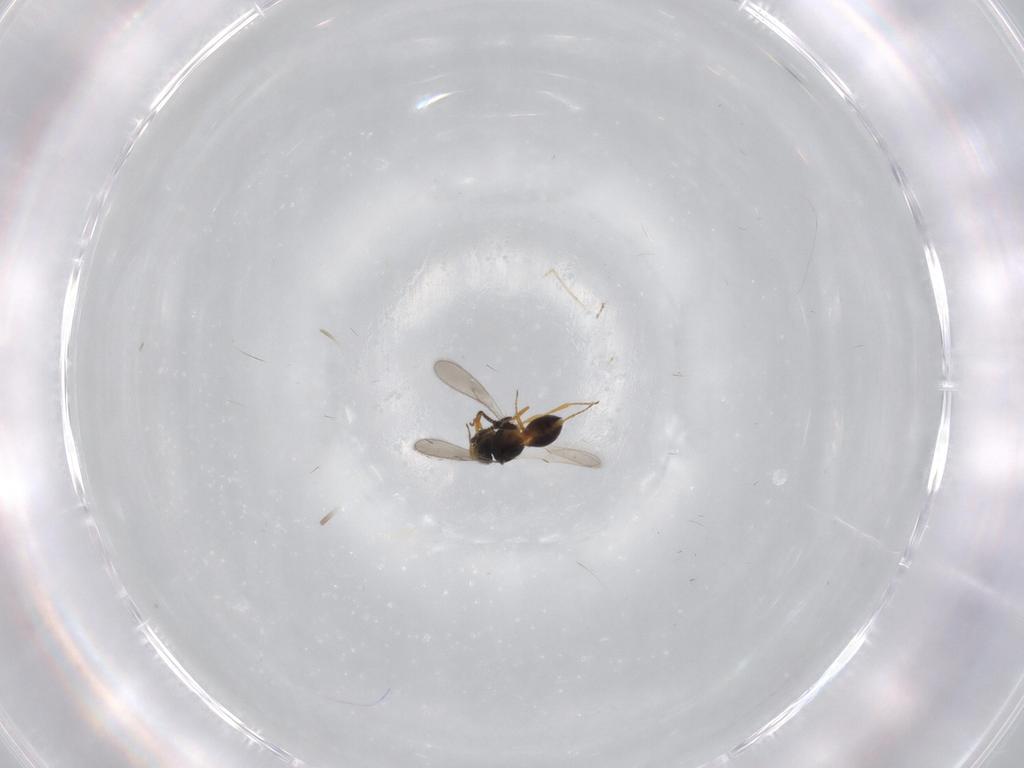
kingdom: Animalia
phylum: Arthropoda
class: Insecta
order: Hymenoptera
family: Scelionidae
